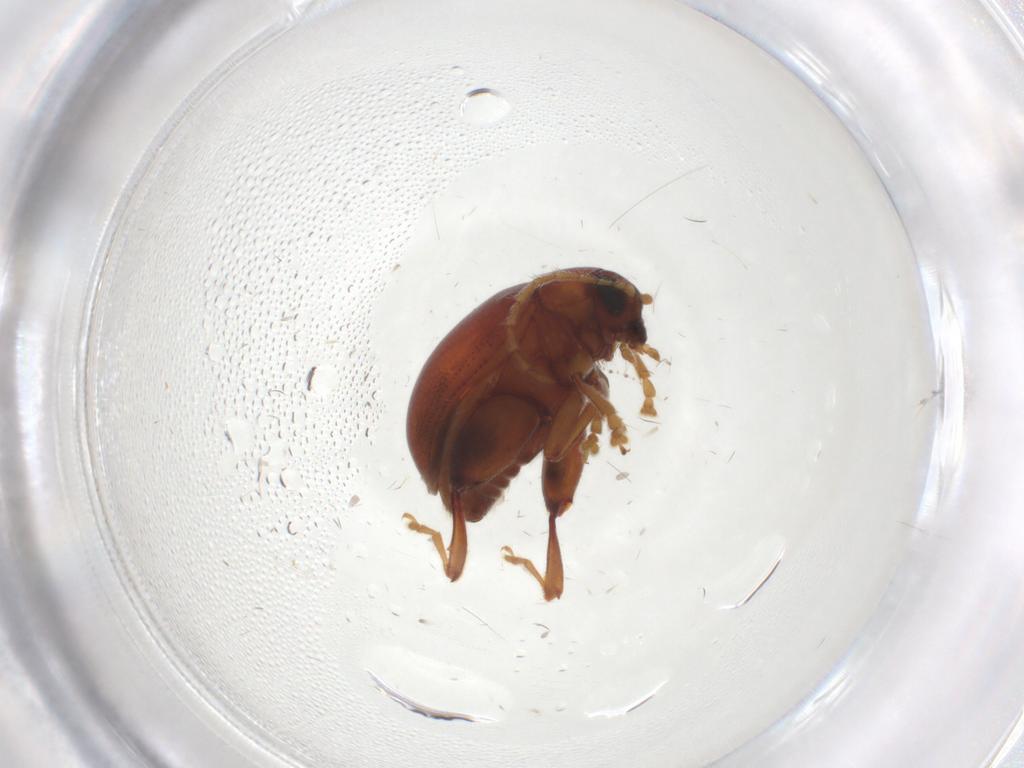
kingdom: Animalia
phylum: Arthropoda
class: Insecta
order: Coleoptera
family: Chrysomelidae
